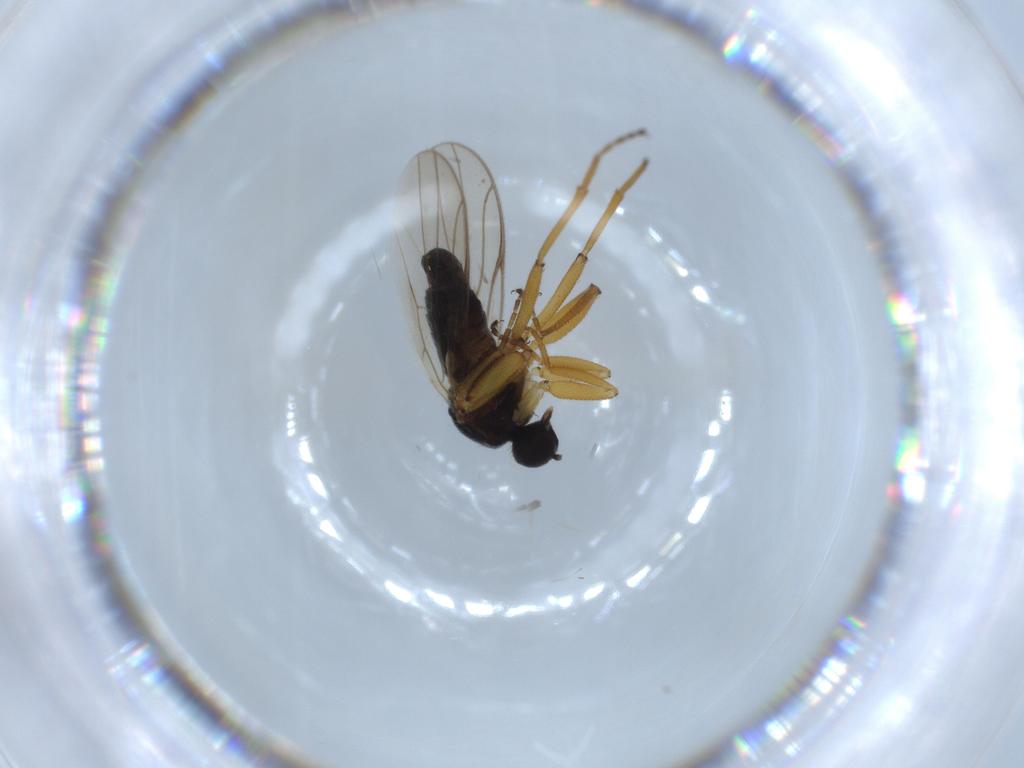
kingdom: Animalia
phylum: Arthropoda
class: Insecta
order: Diptera
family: Hybotidae
